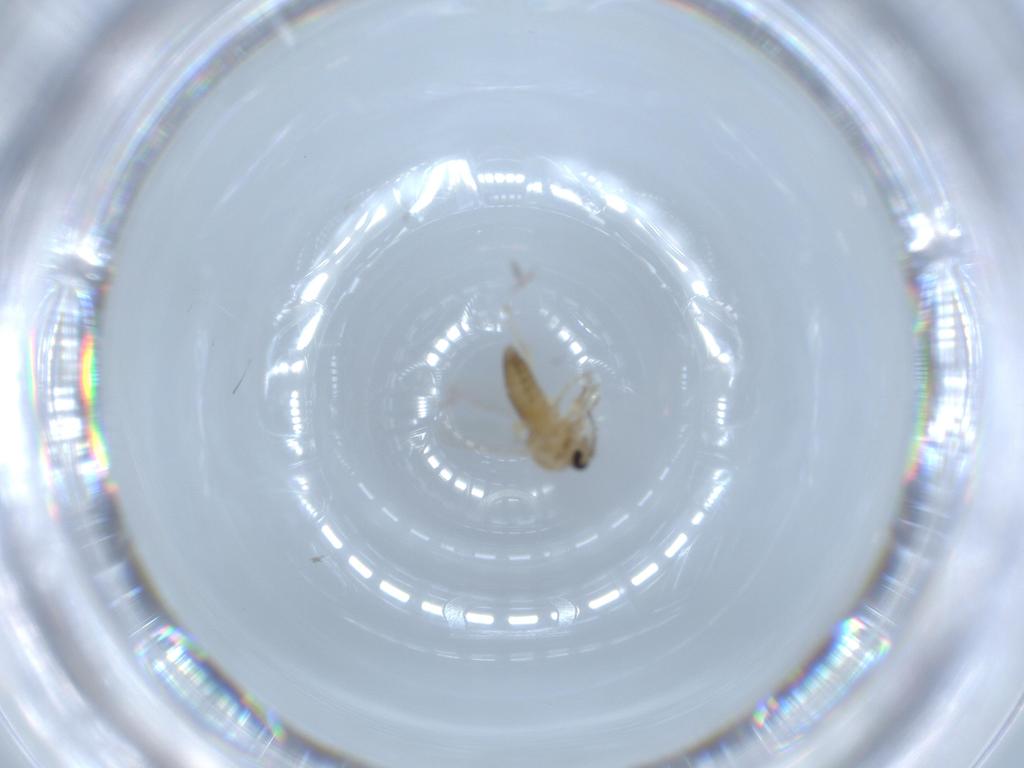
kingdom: Animalia
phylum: Arthropoda
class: Insecta
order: Diptera
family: Ceratopogonidae
